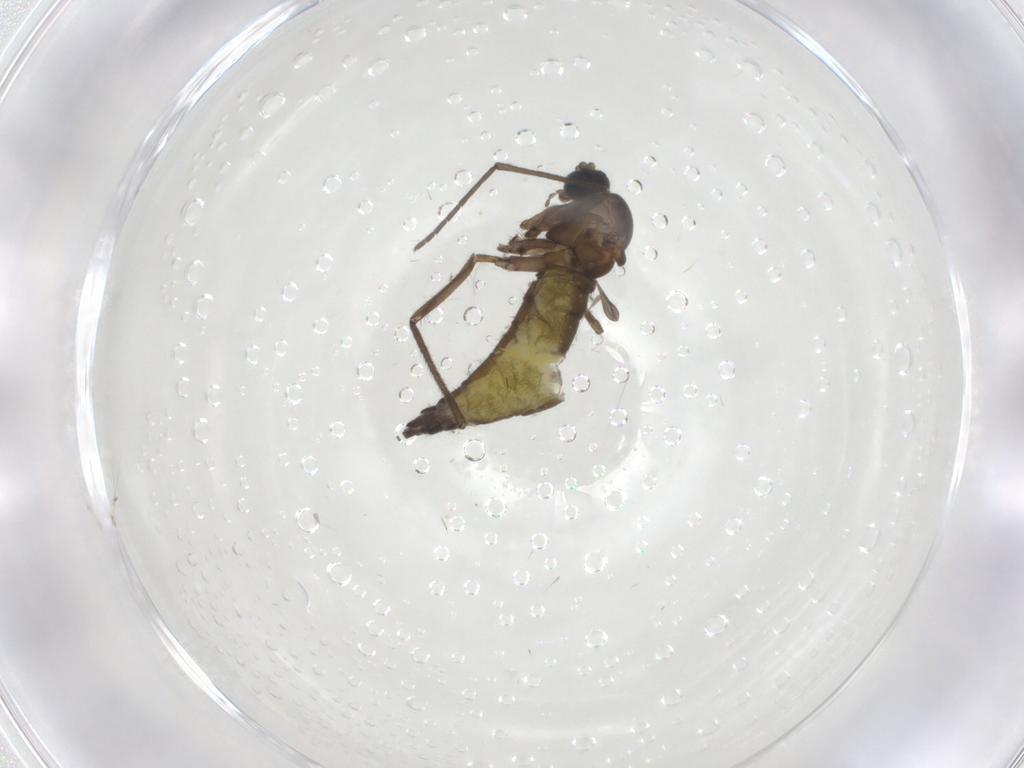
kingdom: Animalia
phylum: Arthropoda
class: Insecta
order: Diptera
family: Sciaridae
